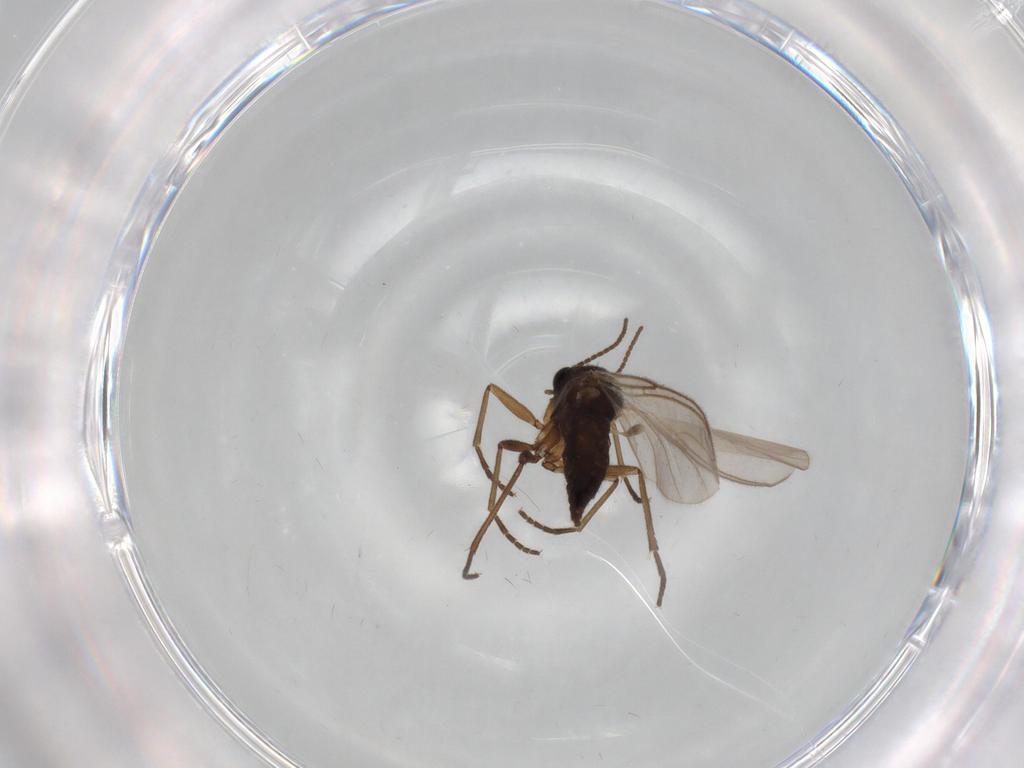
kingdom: Animalia
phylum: Arthropoda
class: Insecta
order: Diptera
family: Sciaridae
